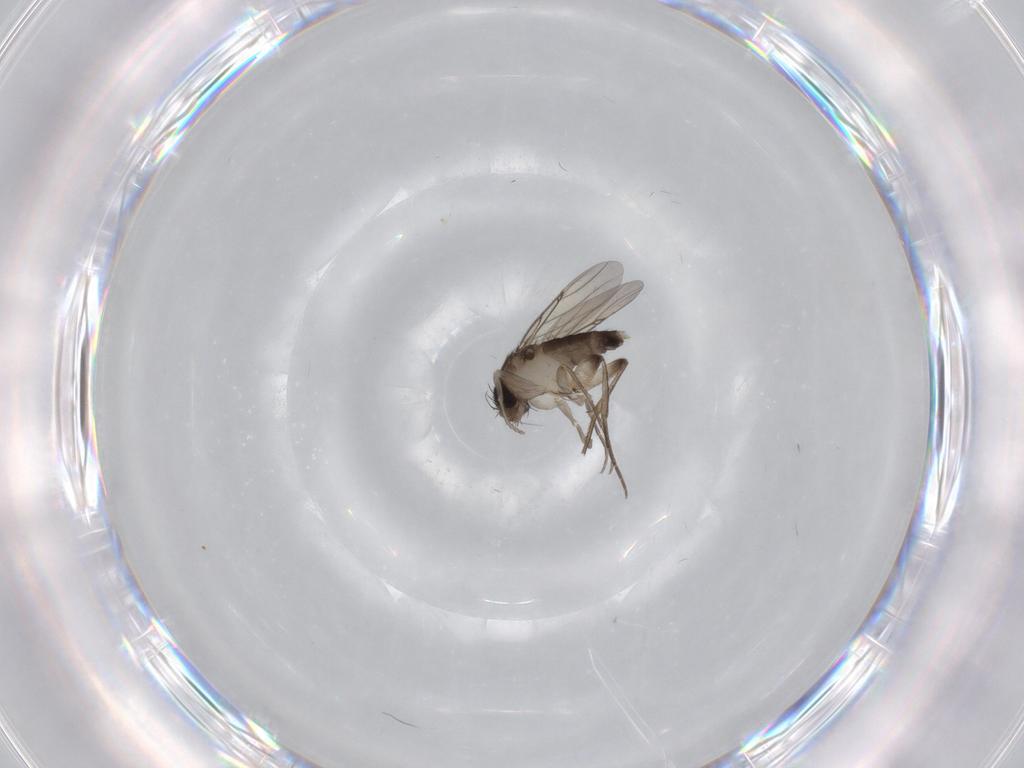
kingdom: Animalia
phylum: Arthropoda
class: Insecta
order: Diptera
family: Phoridae
